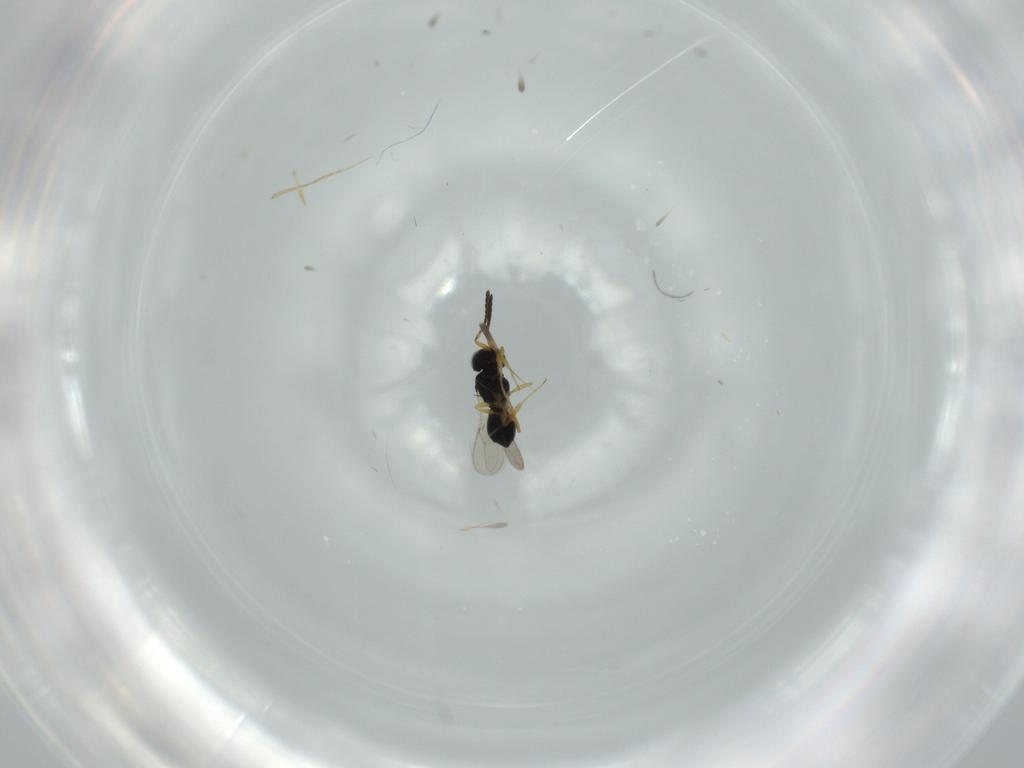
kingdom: Animalia
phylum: Arthropoda
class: Insecta
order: Hymenoptera
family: Scelionidae
